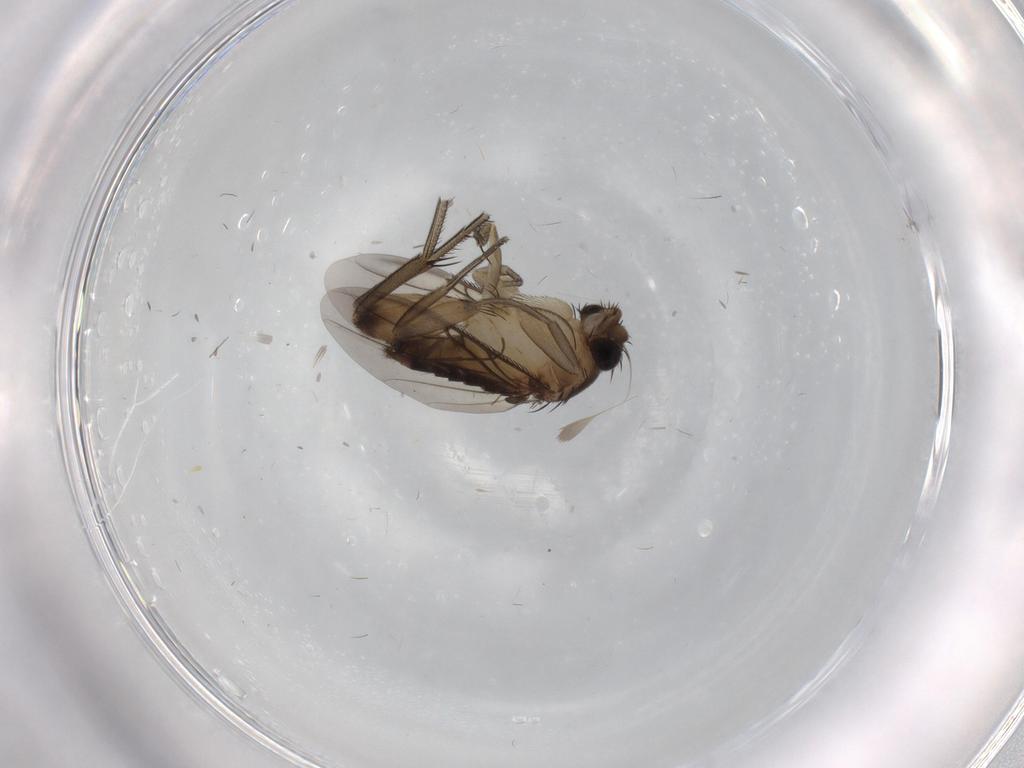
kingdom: Animalia
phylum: Arthropoda
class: Insecta
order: Diptera
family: Phoridae
